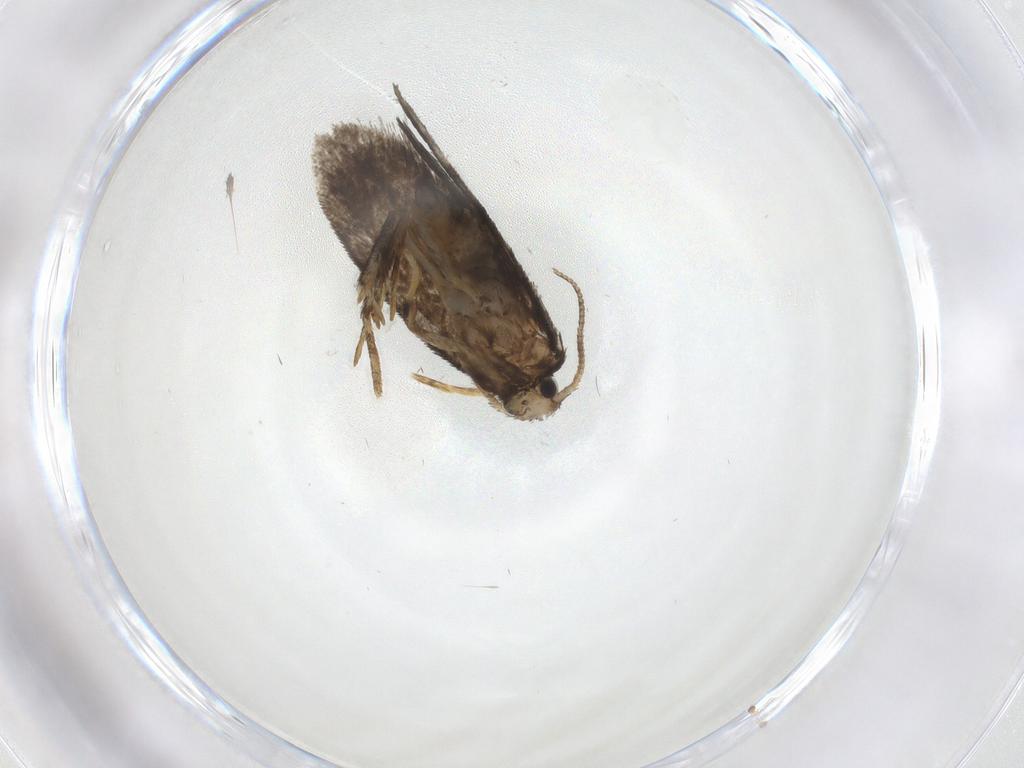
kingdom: Animalia
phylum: Arthropoda
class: Insecta
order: Lepidoptera
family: Psychidae
